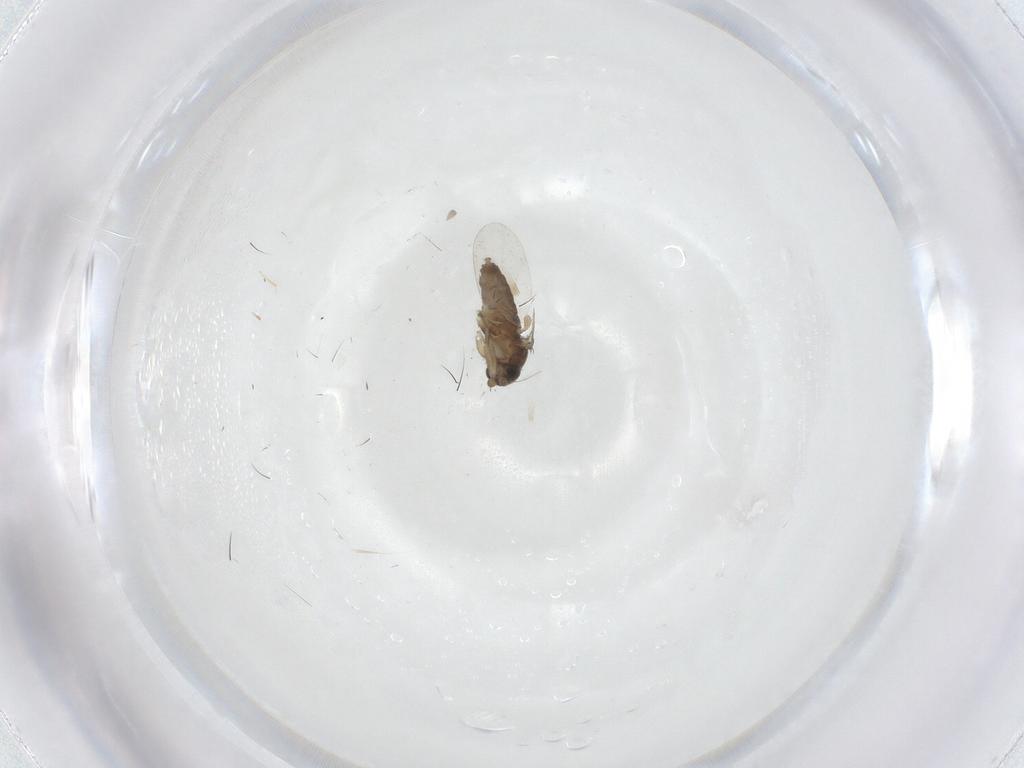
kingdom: Animalia
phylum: Arthropoda
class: Insecta
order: Diptera
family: Phoridae
